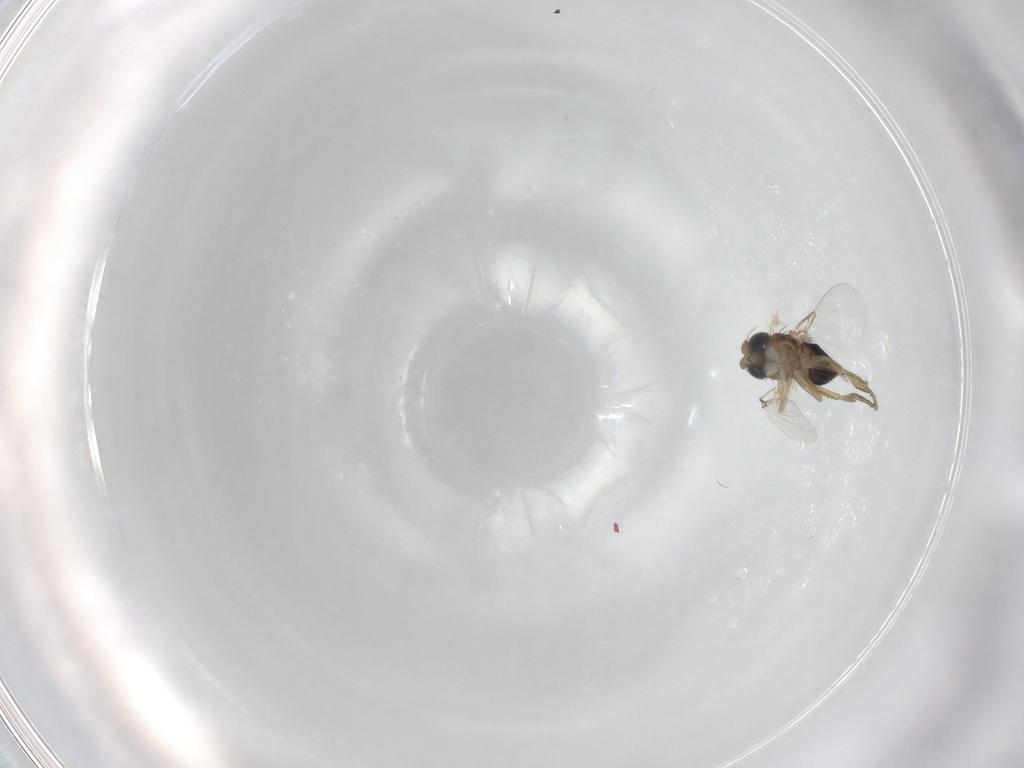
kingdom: Animalia
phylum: Arthropoda
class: Insecta
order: Diptera
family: Phoridae
